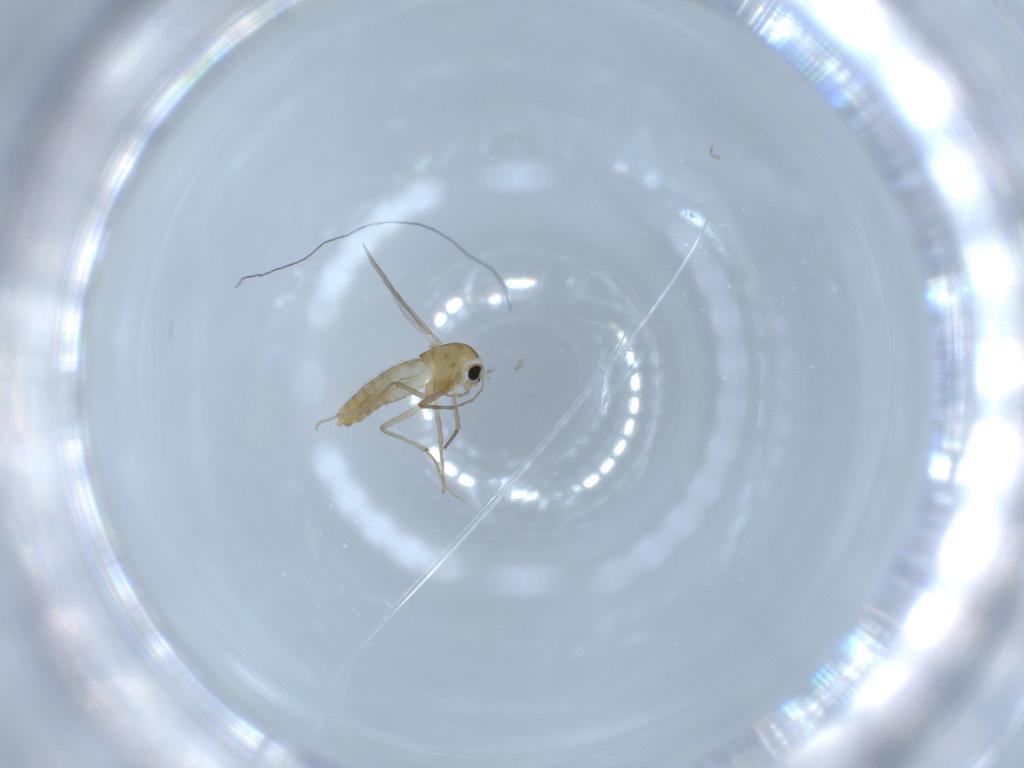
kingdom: Animalia
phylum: Arthropoda
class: Insecta
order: Diptera
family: Chironomidae
